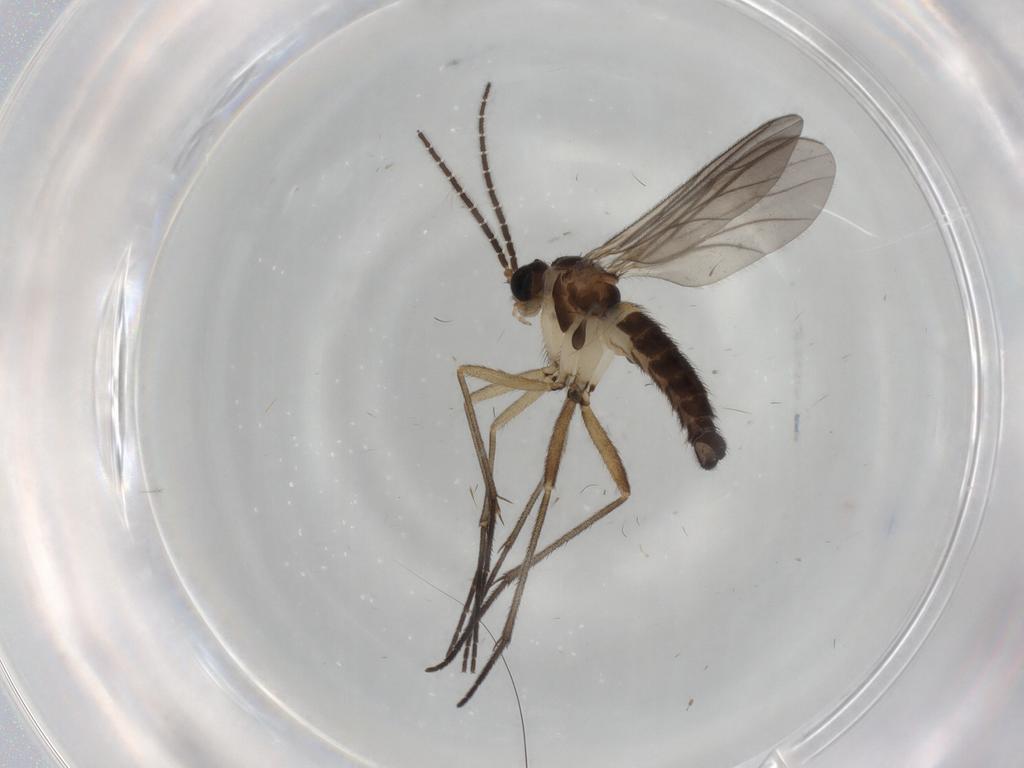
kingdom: Animalia
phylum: Arthropoda
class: Insecta
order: Diptera
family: Sciaridae
